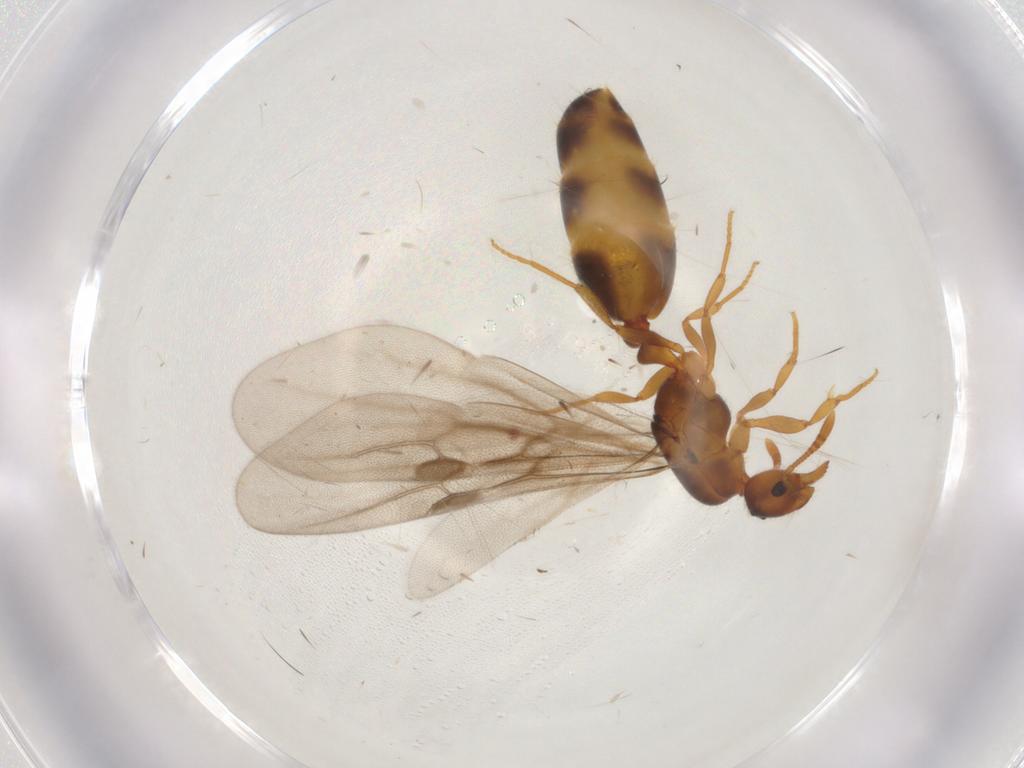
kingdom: Animalia
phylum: Arthropoda
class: Insecta
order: Hymenoptera
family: Formicidae
